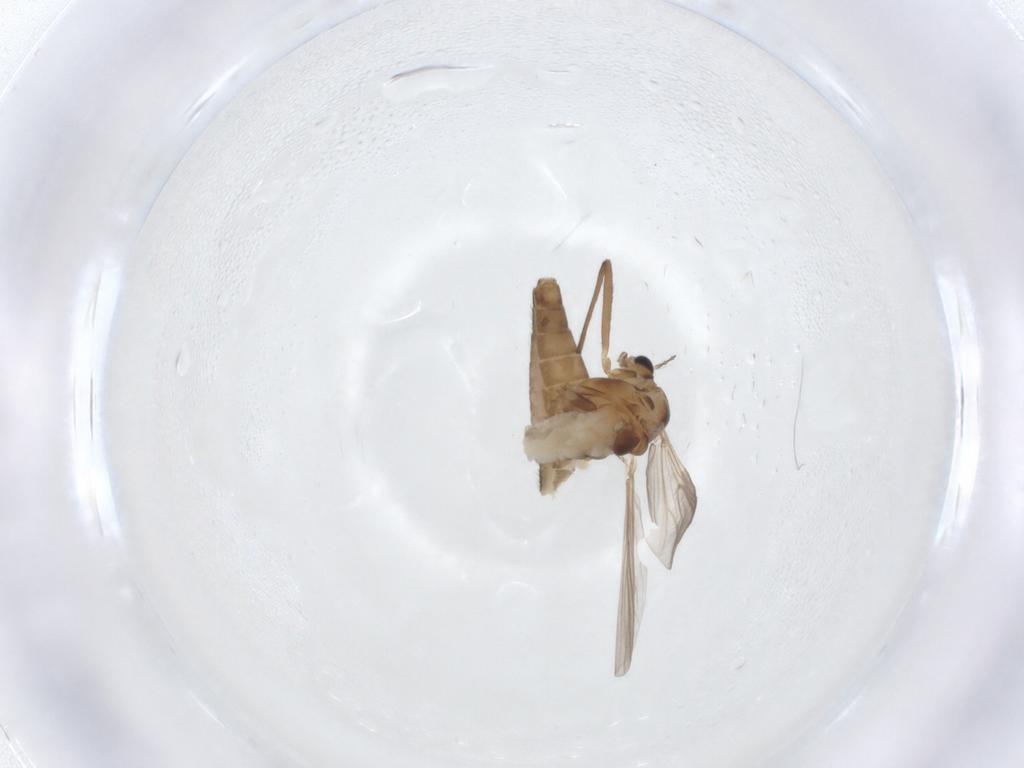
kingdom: Animalia
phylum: Arthropoda
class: Insecta
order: Diptera
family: Chironomidae
